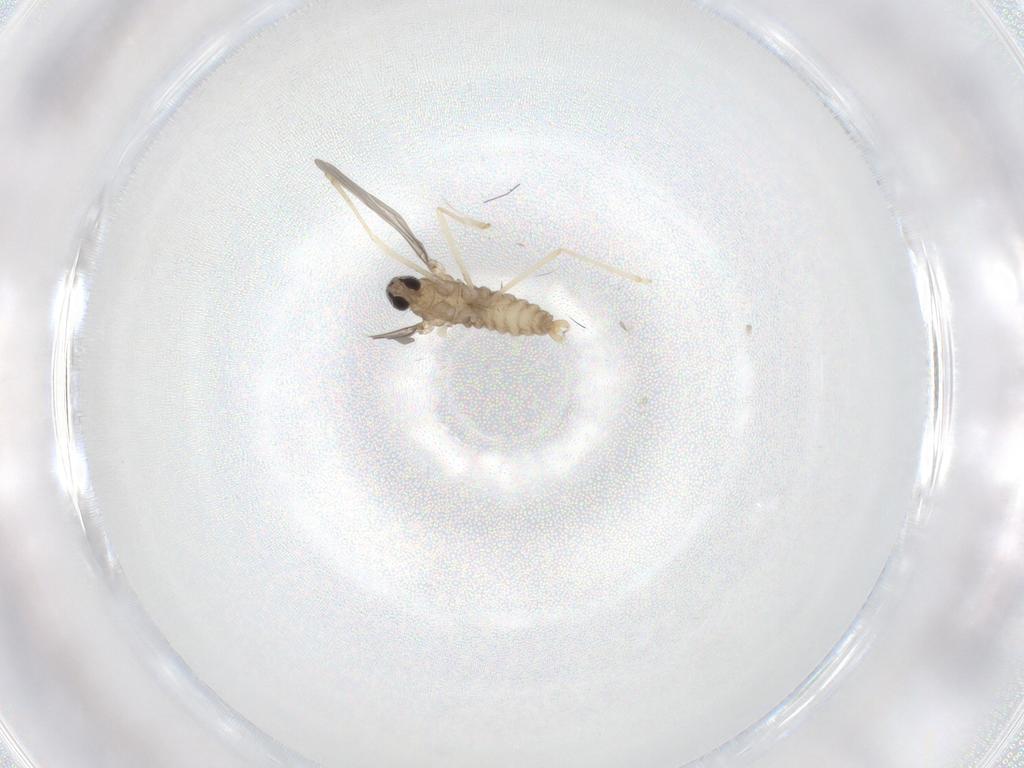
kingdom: Animalia
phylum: Arthropoda
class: Insecta
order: Diptera
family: Cecidomyiidae
